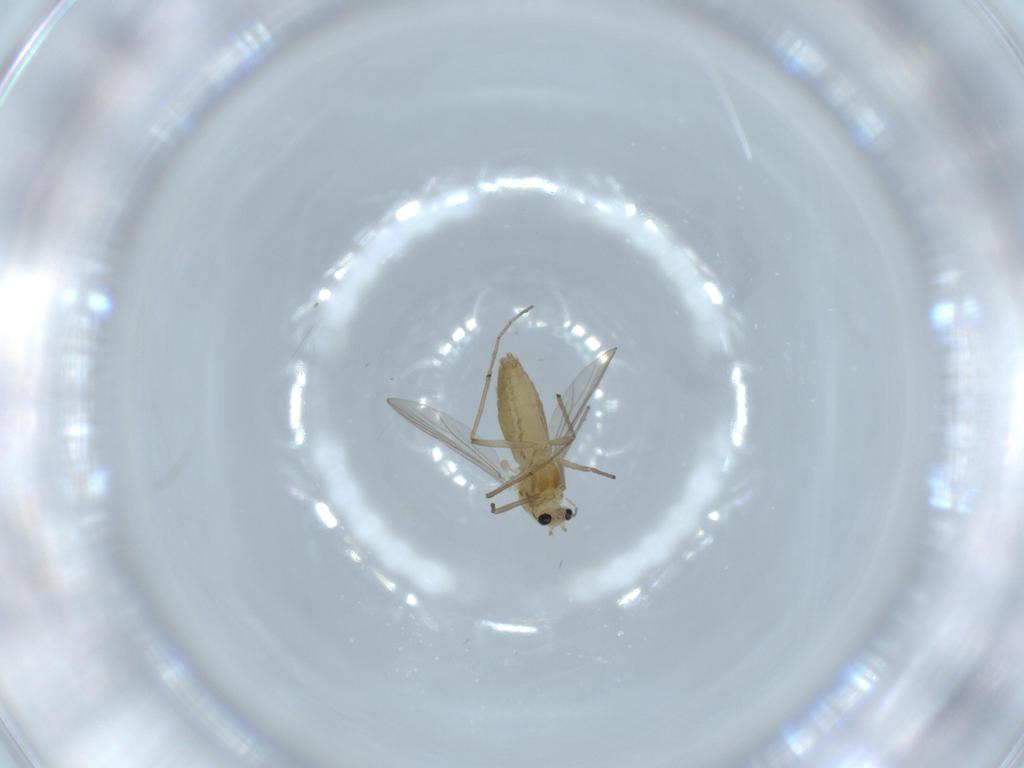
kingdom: Animalia
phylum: Arthropoda
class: Insecta
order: Diptera
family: Chironomidae
